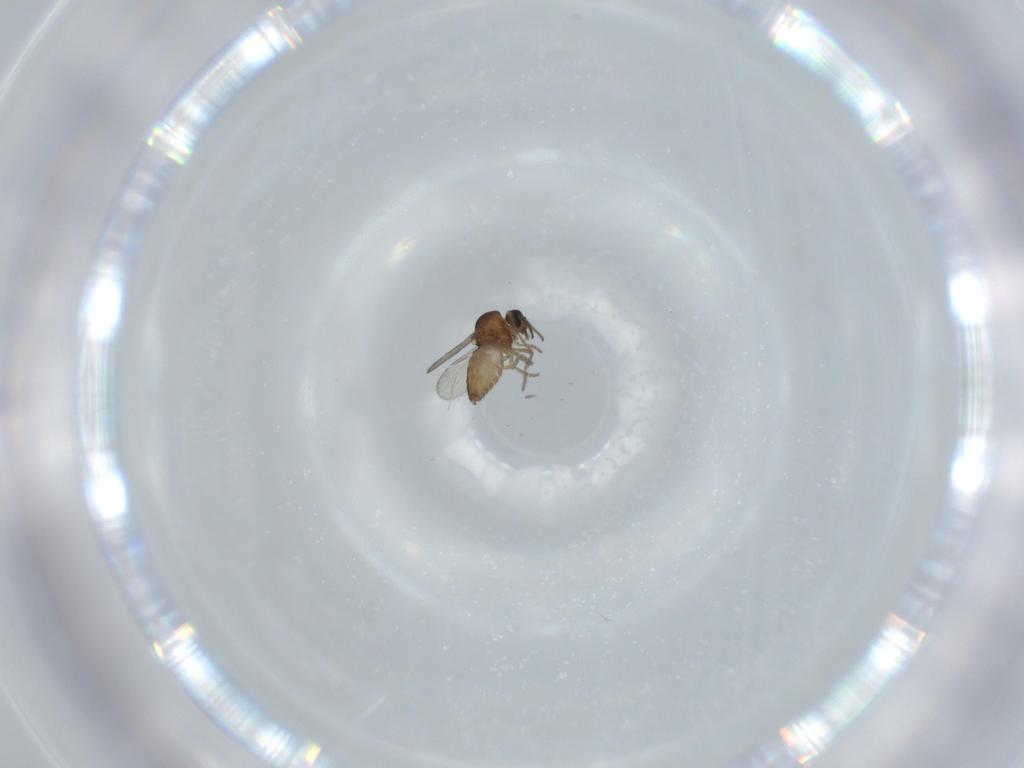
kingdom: Animalia
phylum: Arthropoda
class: Insecta
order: Diptera
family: Ceratopogonidae
